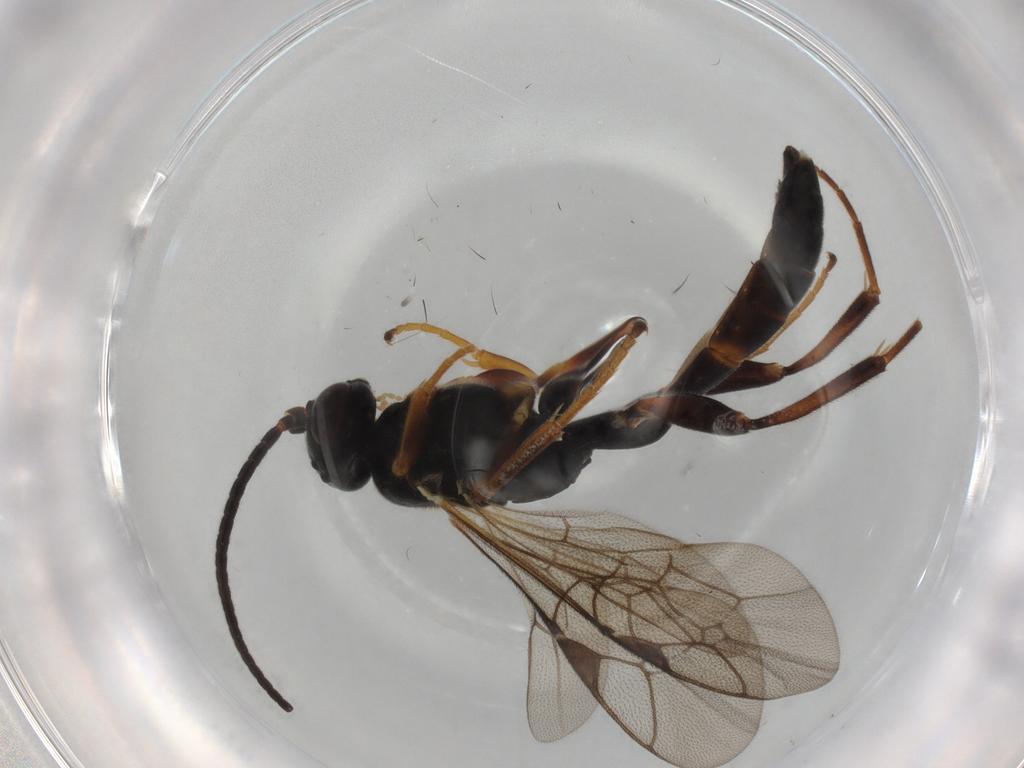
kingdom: Animalia
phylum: Arthropoda
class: Insecta
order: Hymenoptera
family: Ichneumonidae
